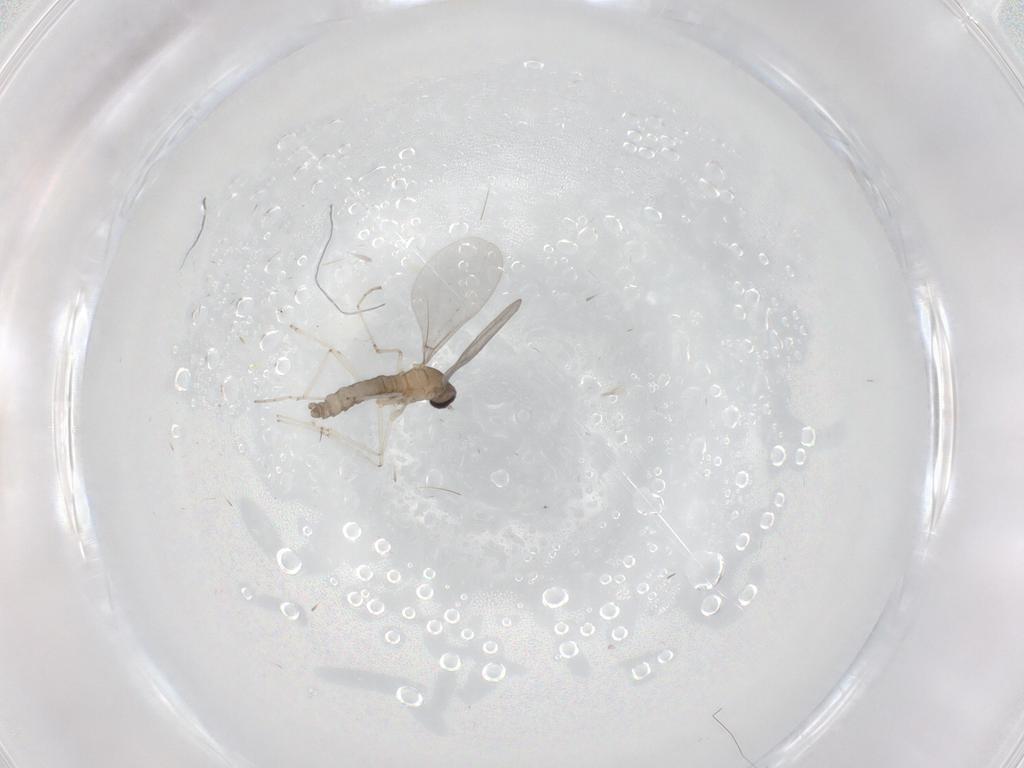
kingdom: Animalia
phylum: Arthropoda
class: Insecta
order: Diptera
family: Cecidomyiidae
